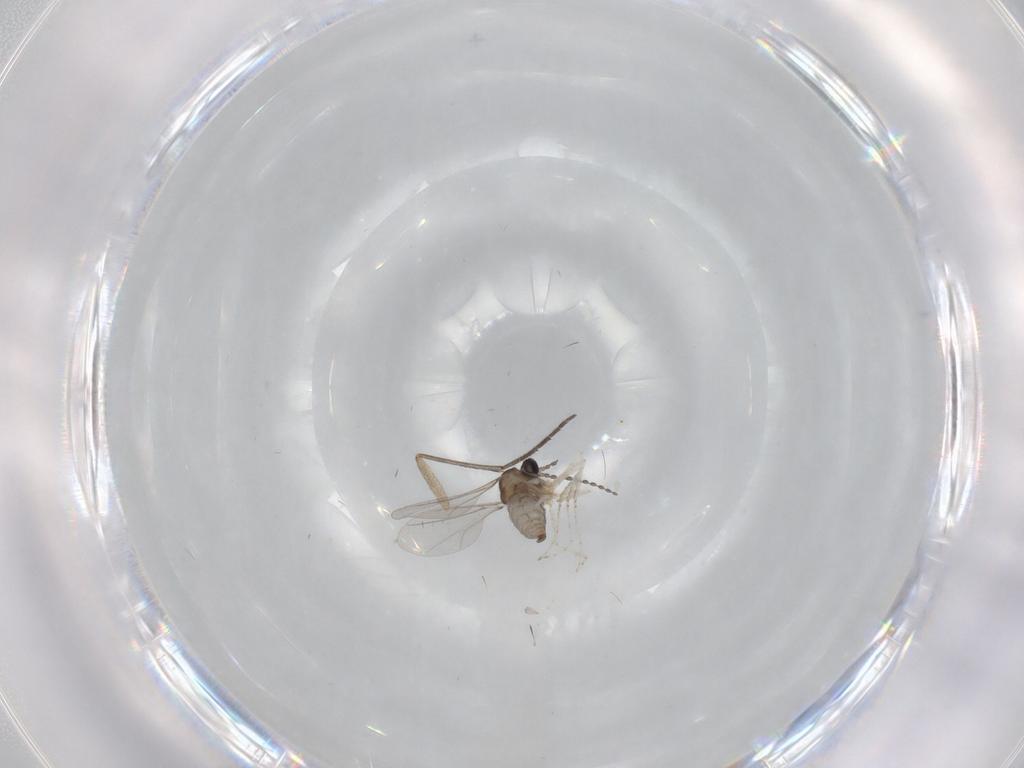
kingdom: Animalia
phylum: Arthropoda
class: Insecta
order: Diptera
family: Cecidomyiidae
